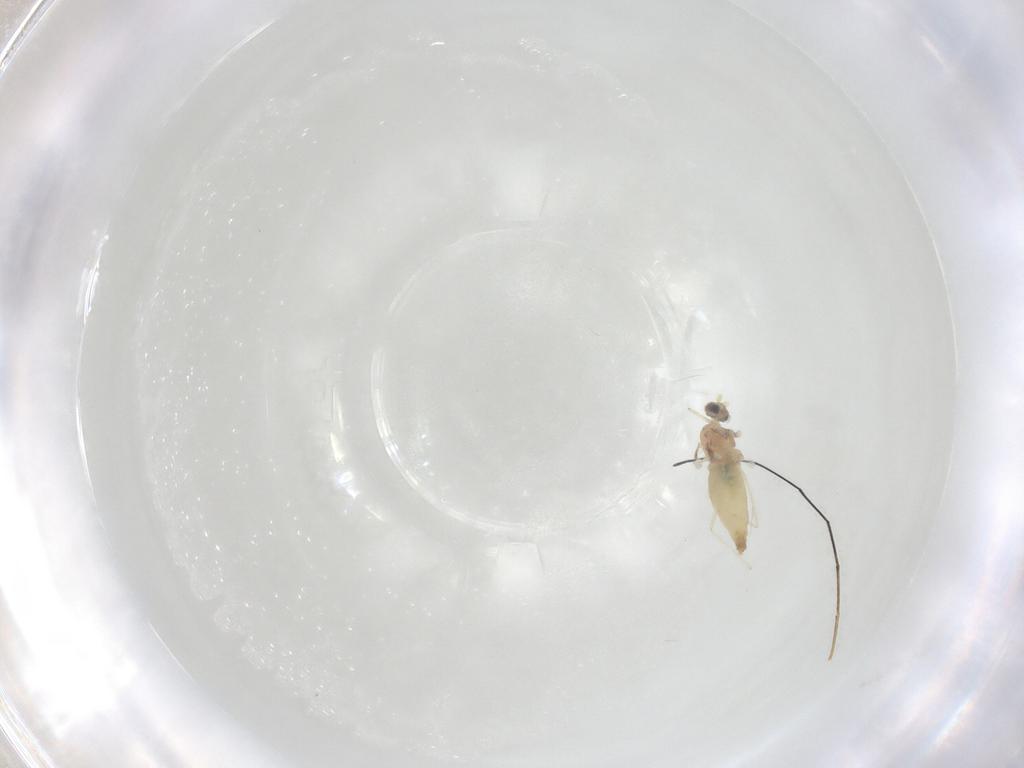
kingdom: Animalia
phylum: Arthropoda
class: Insecta
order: Diptera
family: Cecidomyiidae
